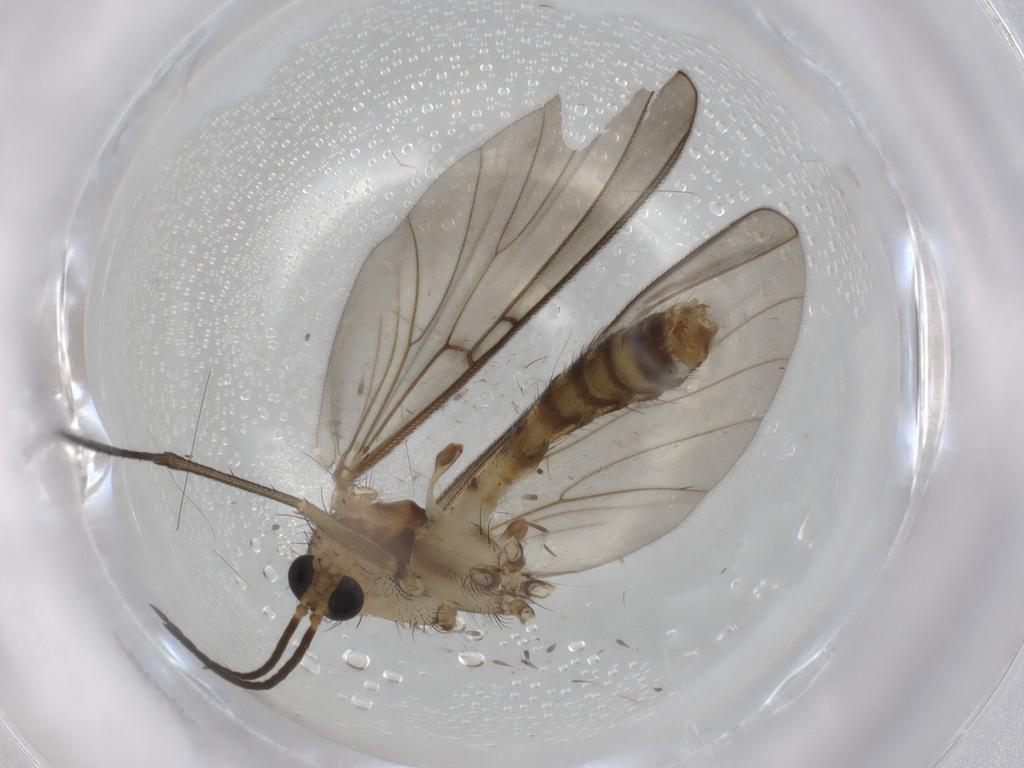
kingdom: Animalia
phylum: Arthropoda
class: Insecta
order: Diptera
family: Mycetophilidae
